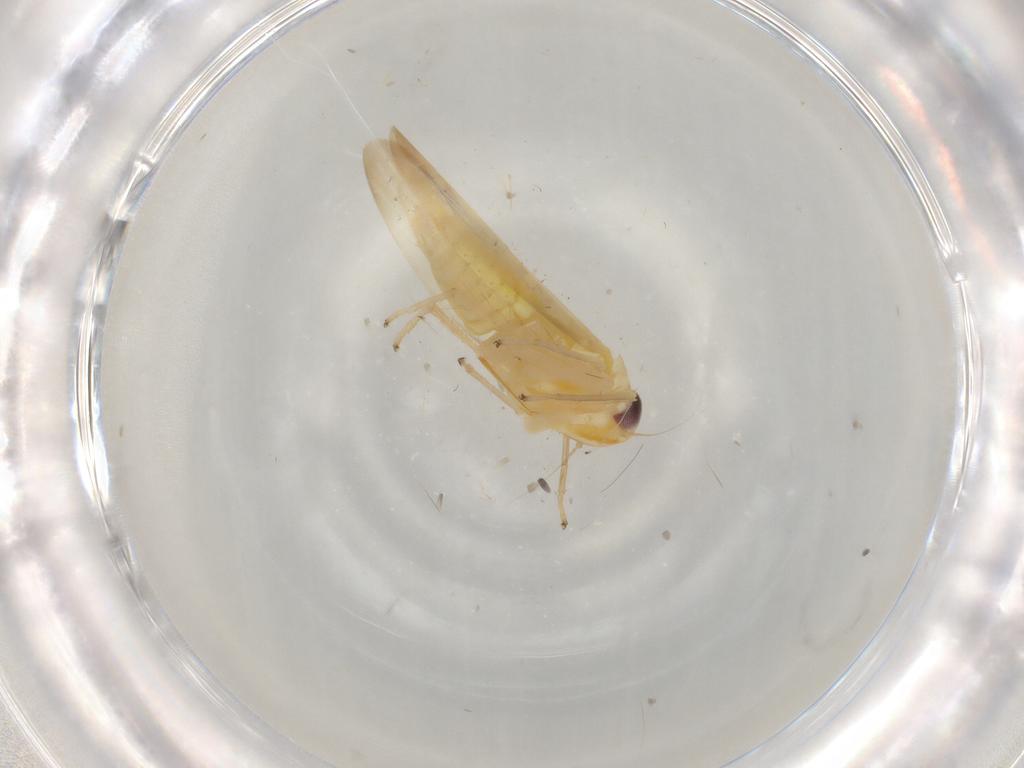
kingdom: Animalia
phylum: Arthropoda
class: Insecta
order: Hemiptera
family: Cicadellidae
